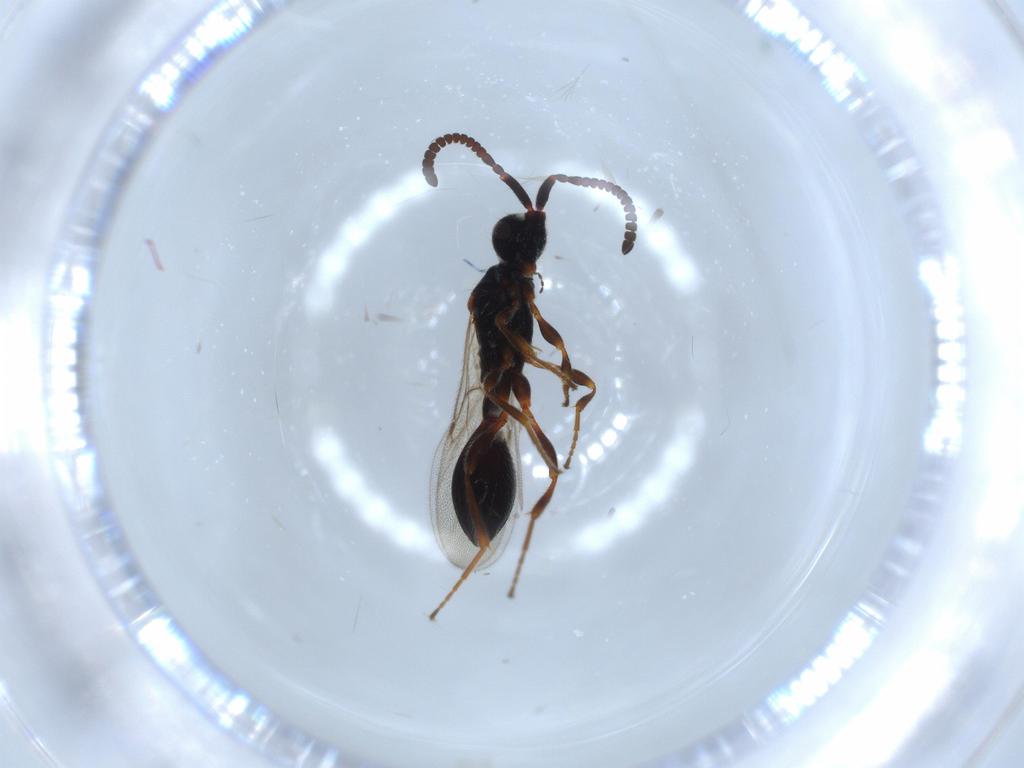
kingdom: Animalia
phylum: Arthropoda
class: Insecta
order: Hymenoptera
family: Diapriidae
